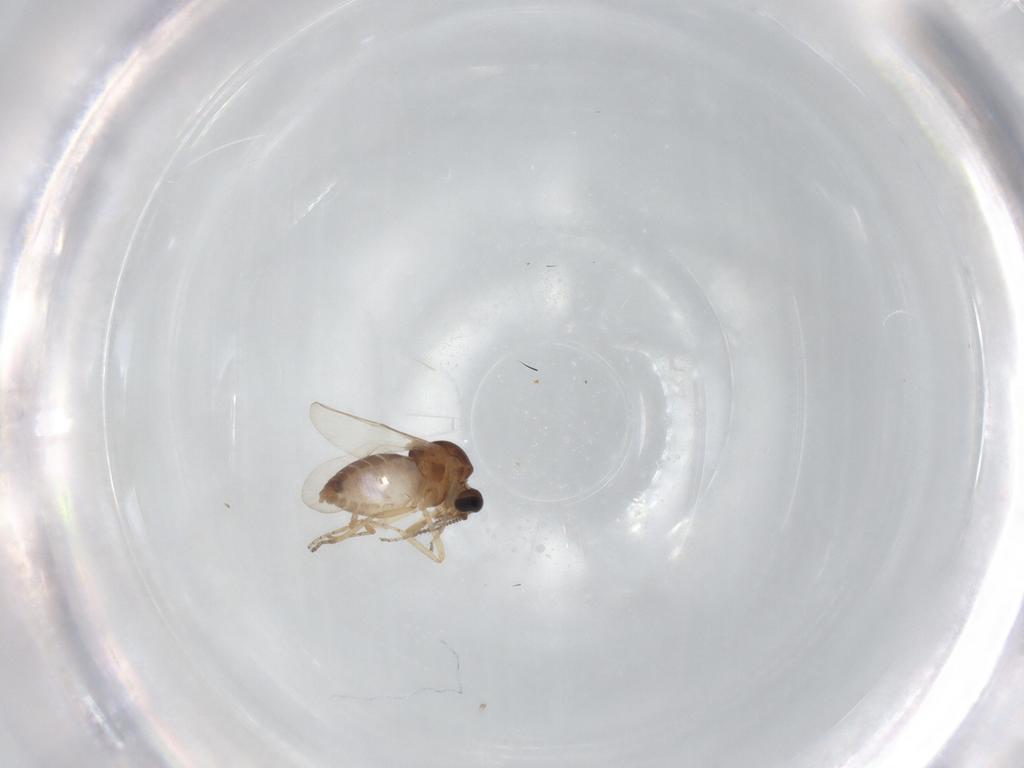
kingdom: Animalia
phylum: Arthropoda
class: Insecta
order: Diptera
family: Ceratopogonidae
